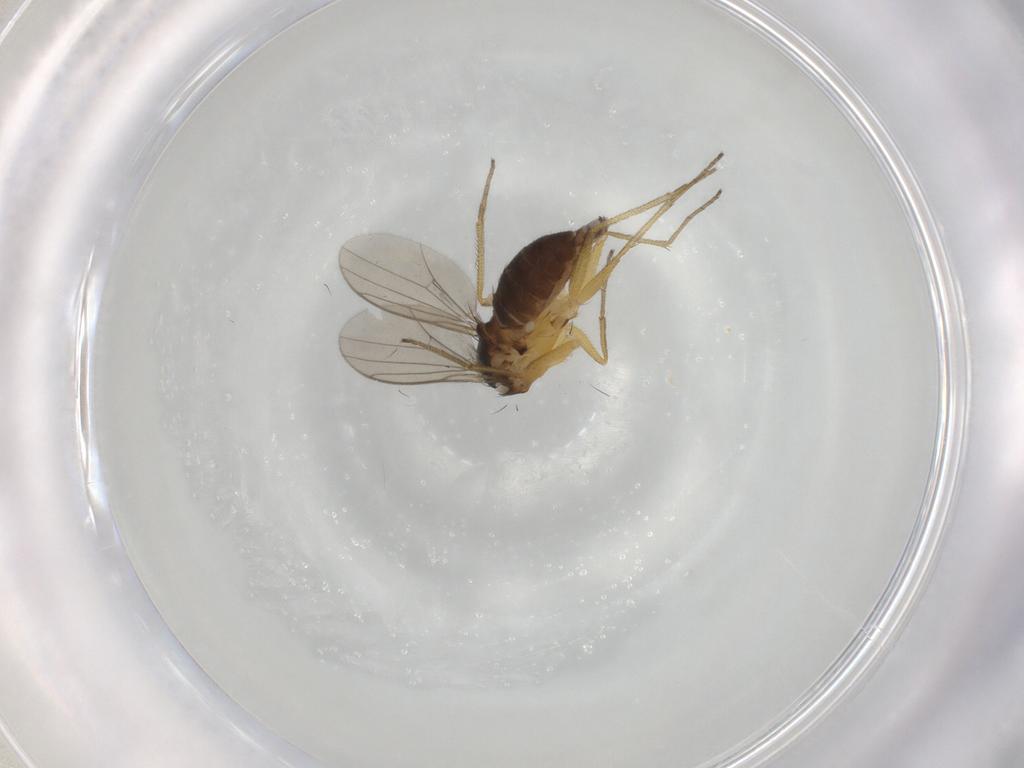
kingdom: Animalia
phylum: Arthropoda
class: Insecta
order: Diptera
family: Dolichopodidae
